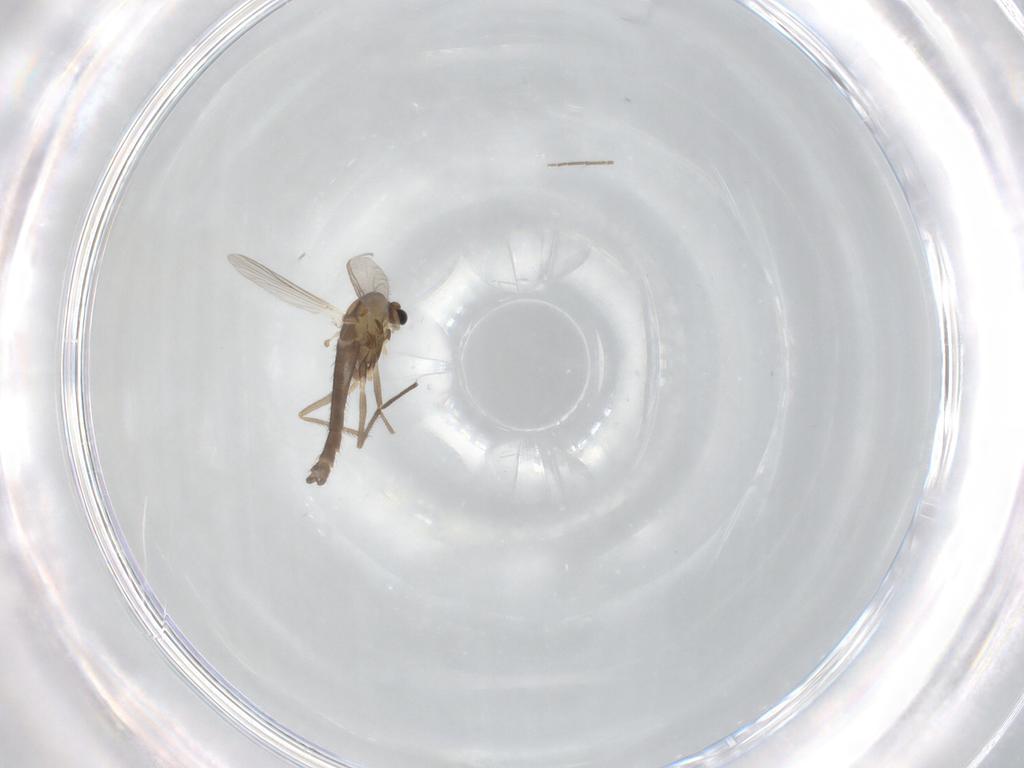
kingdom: Animalia
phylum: Arthropoda
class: Insecta
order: Diptera
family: Chironomidae
